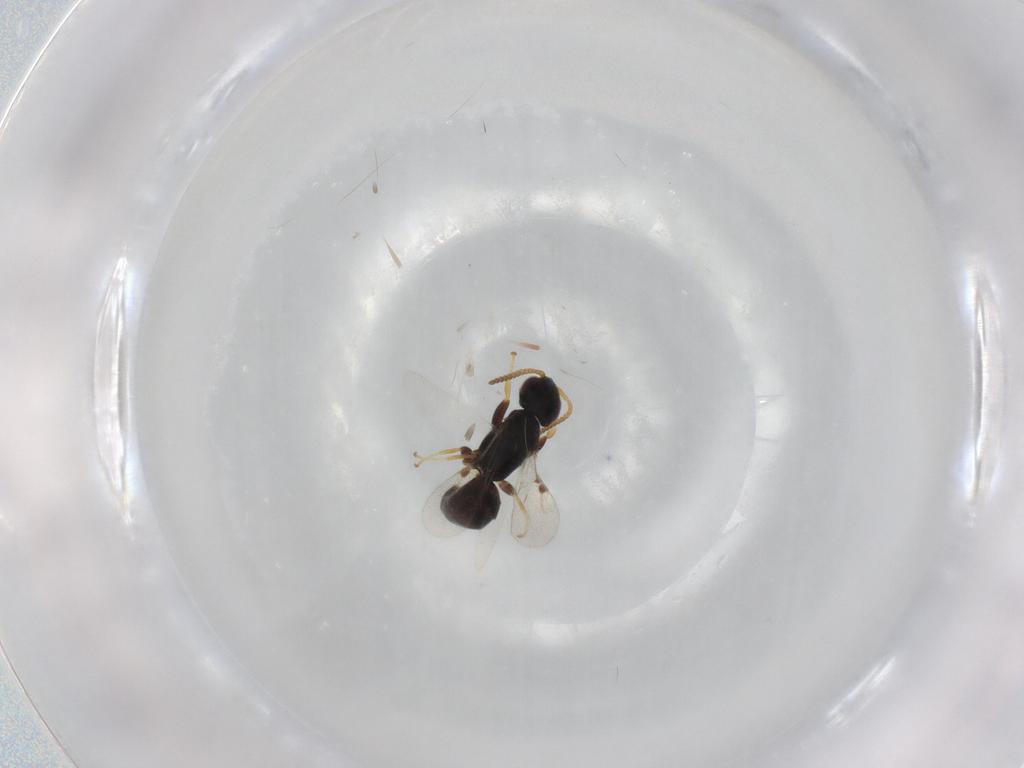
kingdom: Animalia
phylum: Arthropoda
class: Insecta
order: Hymenoptera
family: Bethylidae
